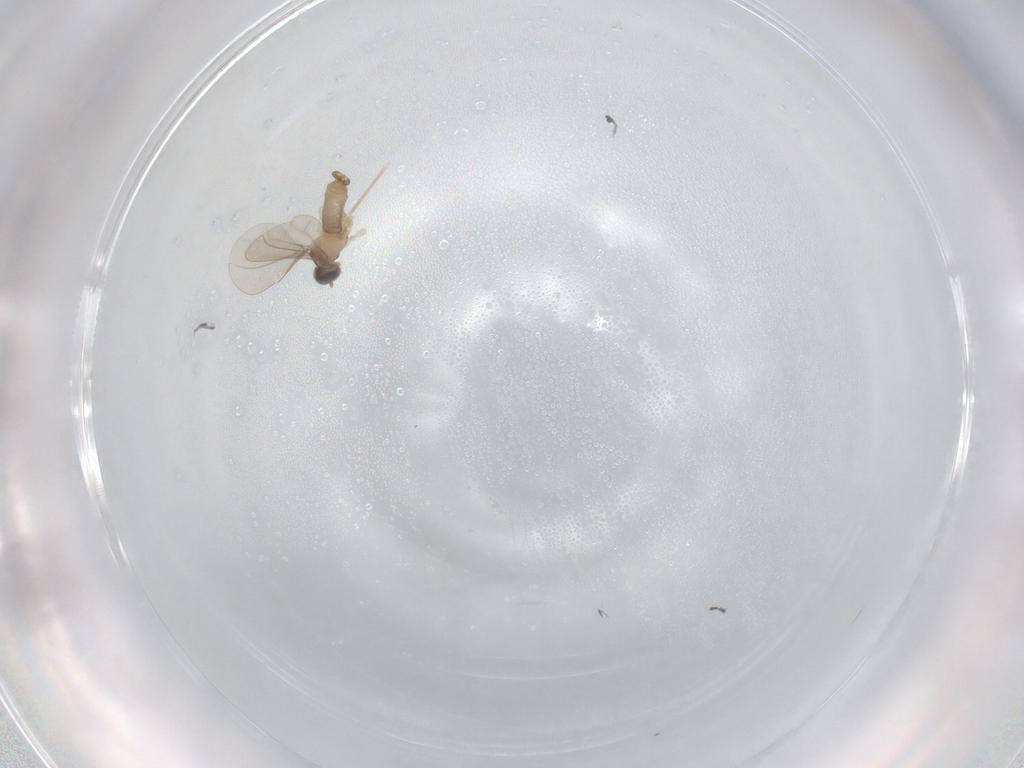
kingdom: Animalia
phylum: Arthropoda
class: Insecta
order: Diptera
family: Cecidomyiidae
